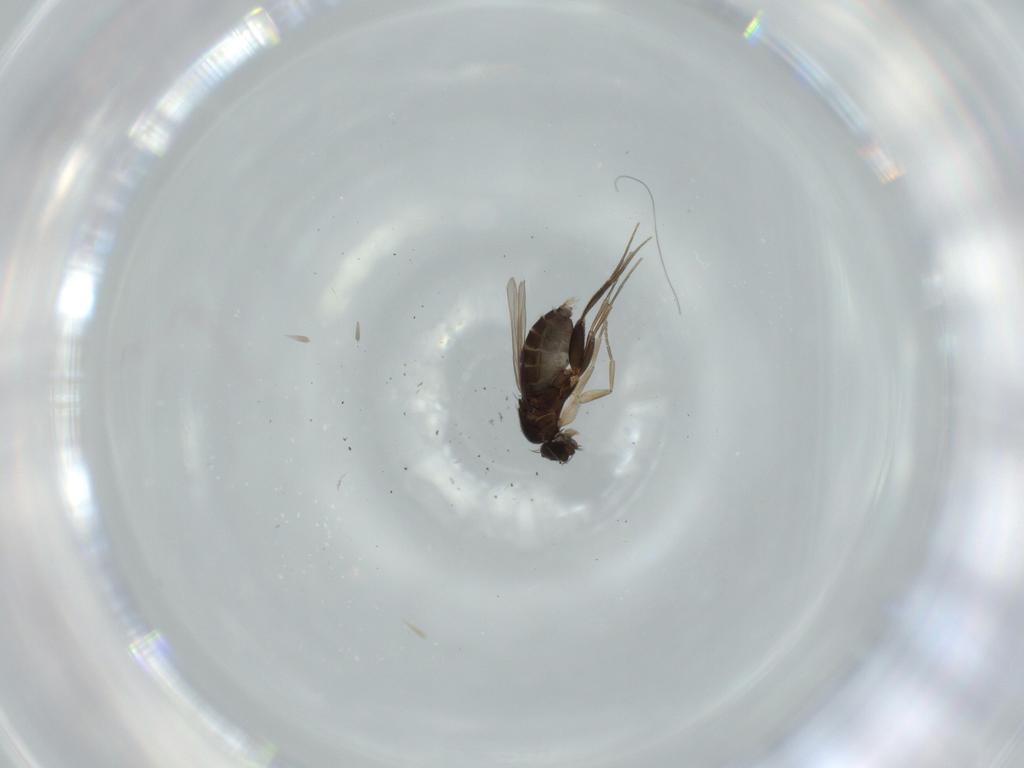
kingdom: Animalia
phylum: Arthropoda
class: Insecta
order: Diptera
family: Phoridae
